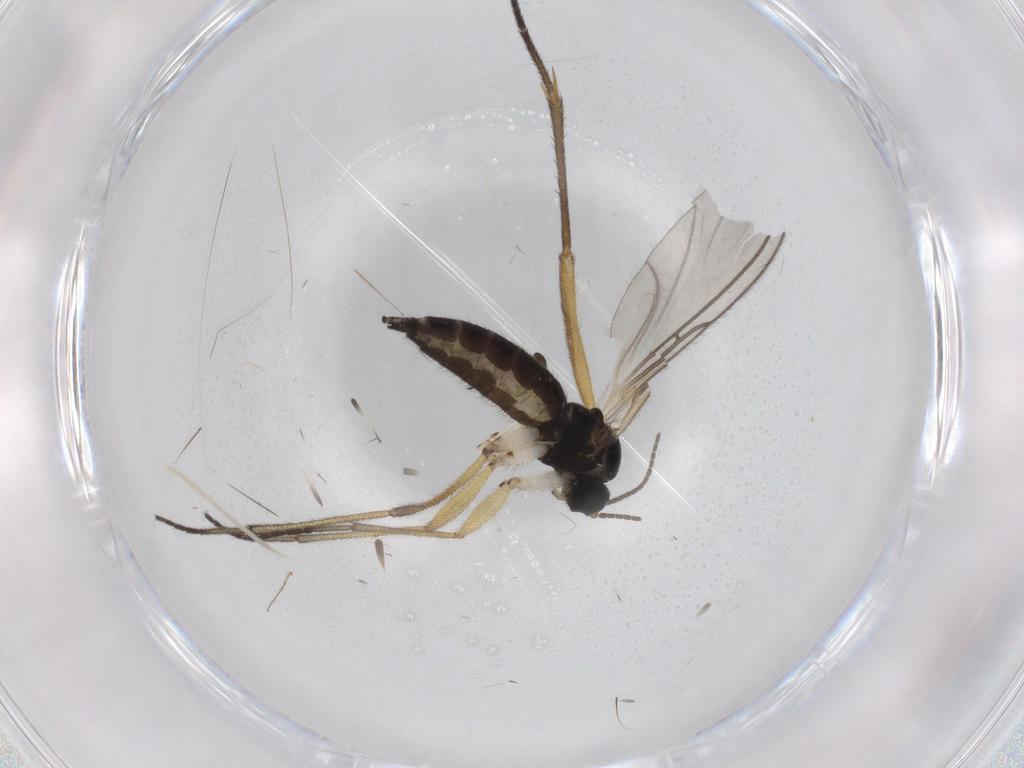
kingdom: Animalia
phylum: Arthropoda
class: Insecta
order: Diptera
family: Sciaridae
